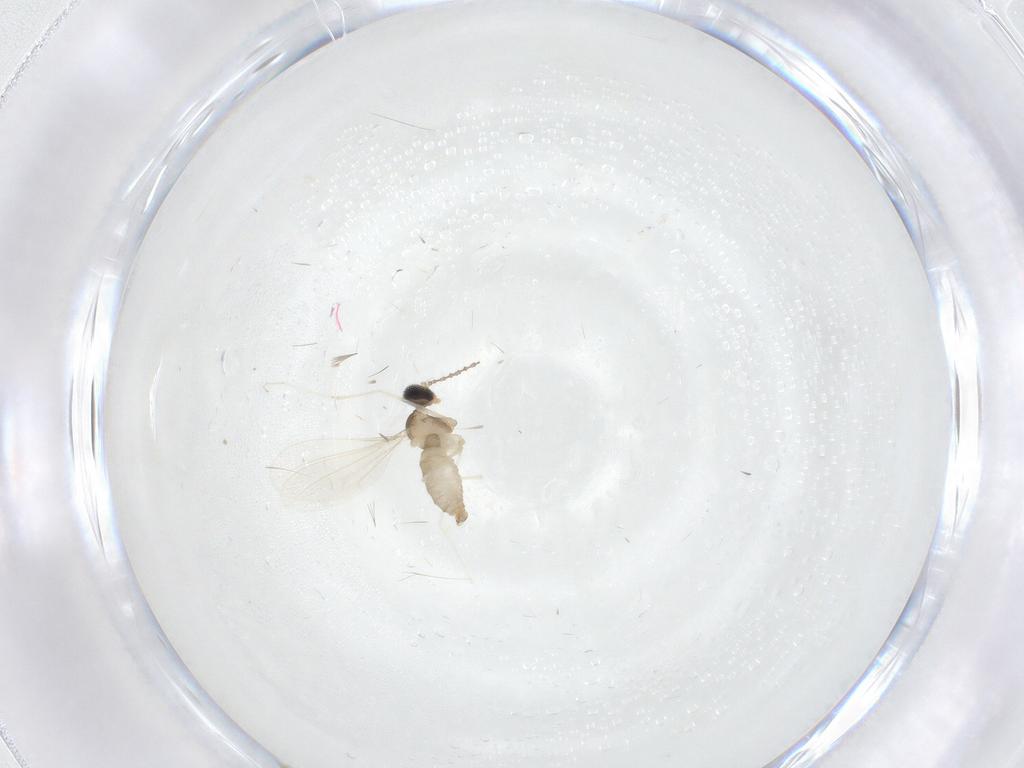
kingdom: Animalia
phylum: Arthropoda
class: Insecta
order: Diptera
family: Cecidomyiidae
